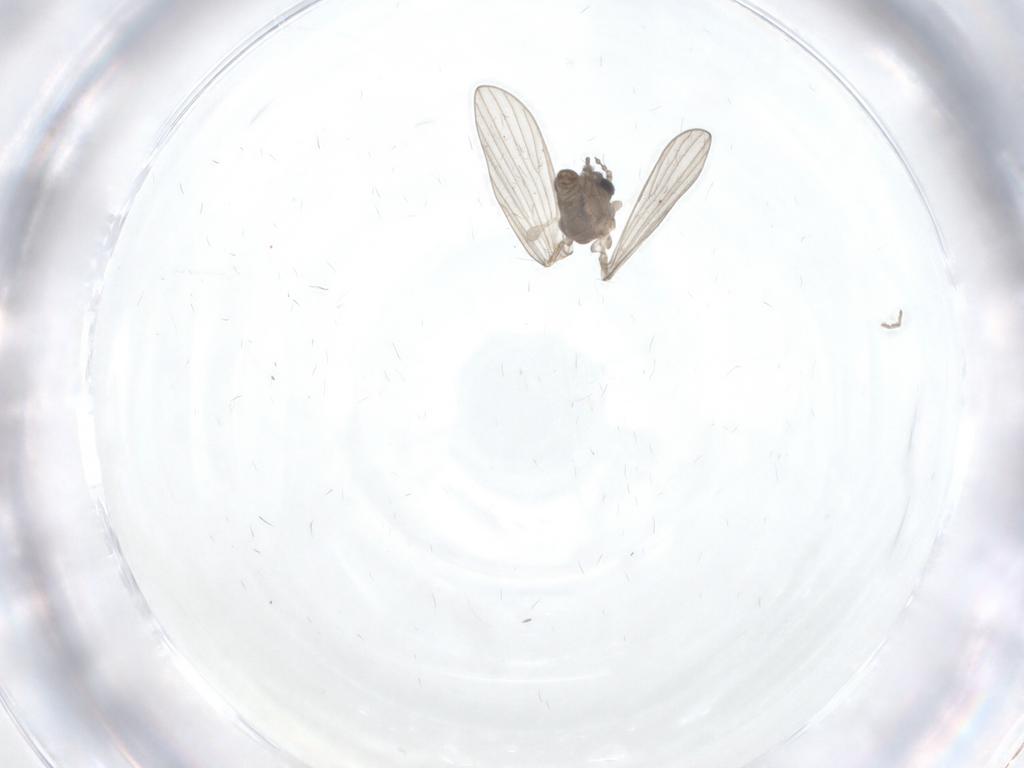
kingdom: Animalia
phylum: Arthropoda
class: Insecta
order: Diptera
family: Psychodidae
